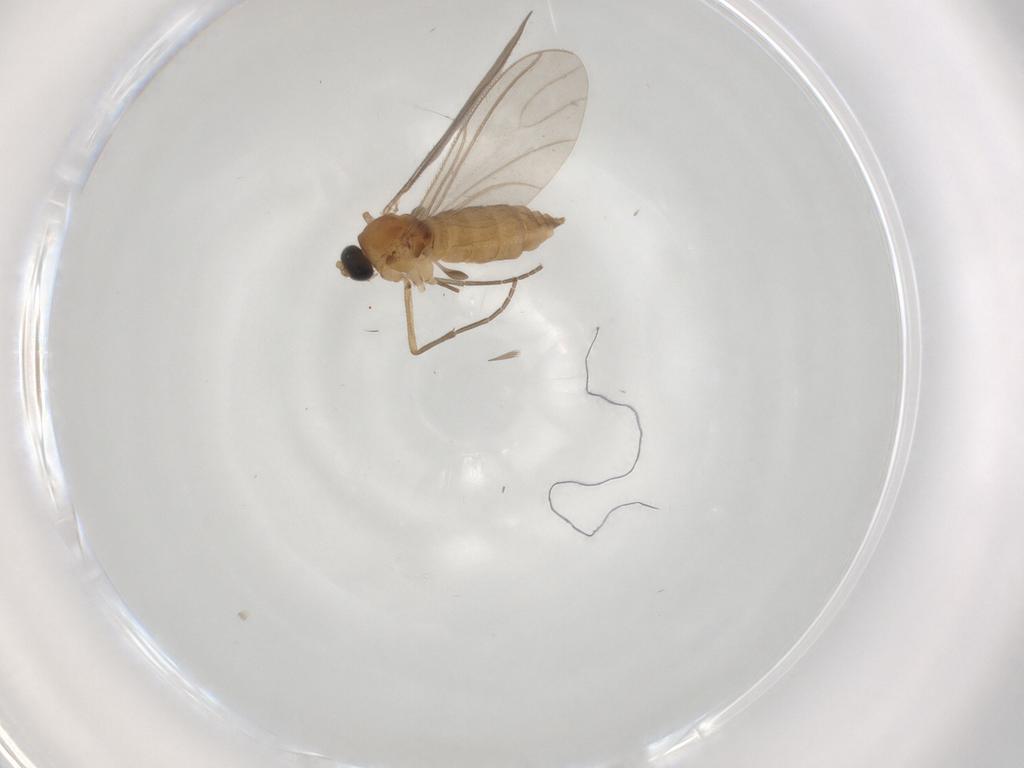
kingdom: Animalia
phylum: Arthropoda
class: Insecta
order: Diptera
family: Sciaridae
